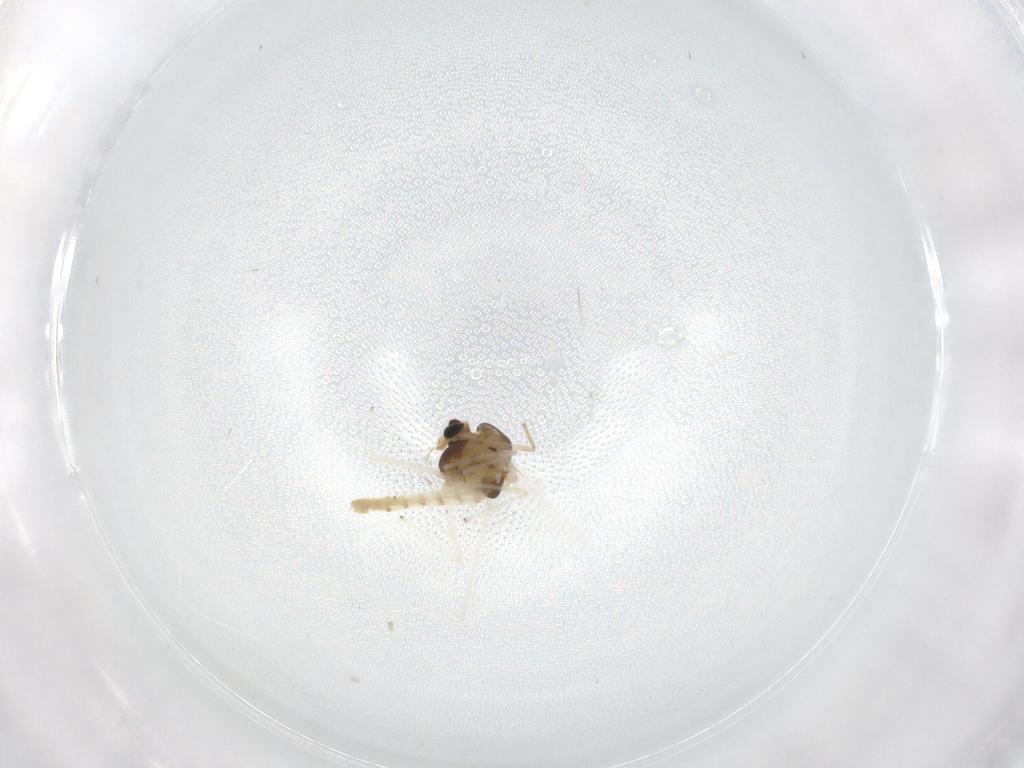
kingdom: Animalia
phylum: Arthropoda
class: Insecta
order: Diptera
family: Chironomidae
